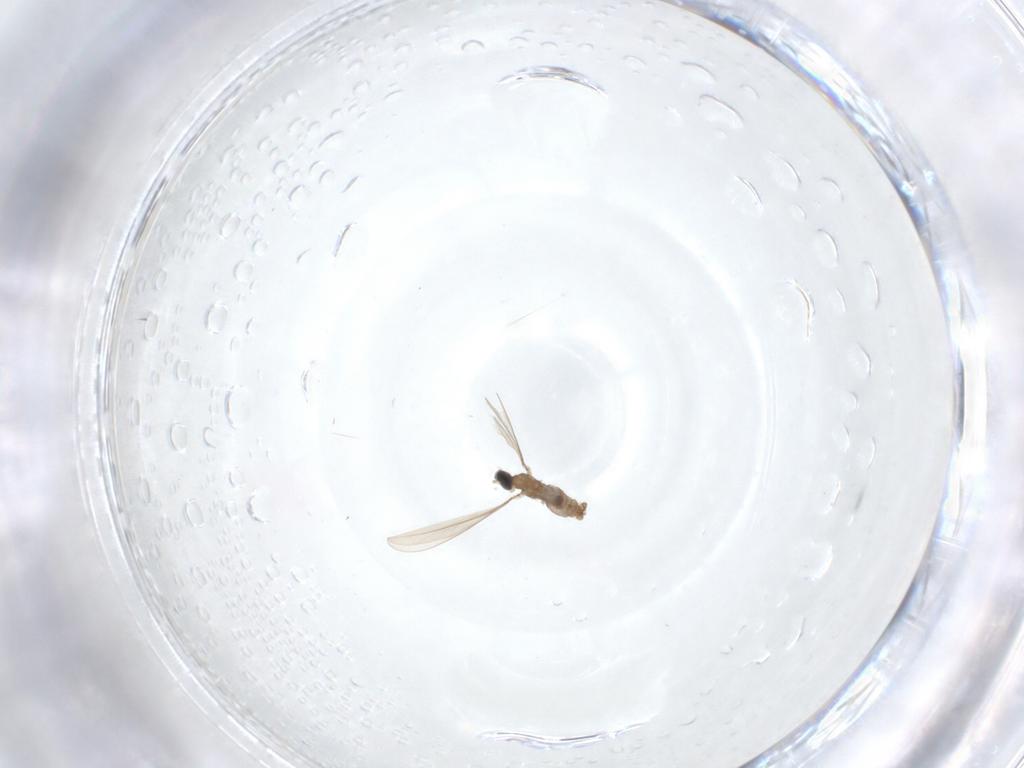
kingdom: Animalia
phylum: Arthropoda
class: Insecta
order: Diptera
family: Cecidomyiidae
